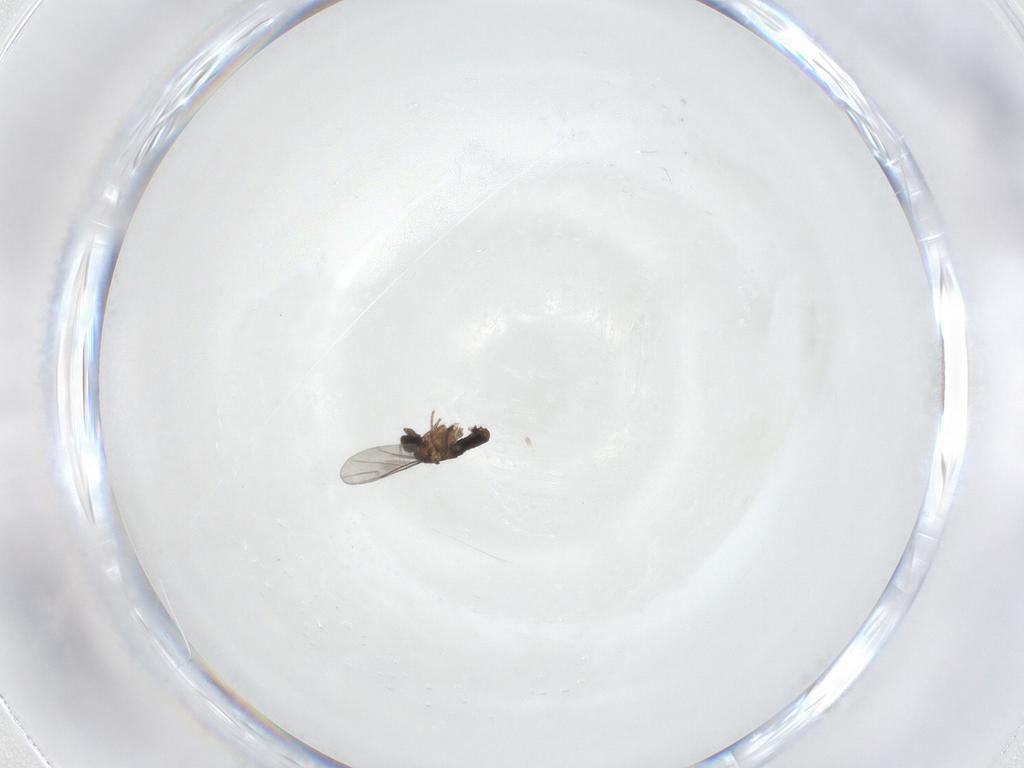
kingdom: Animalia
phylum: Arthropoda
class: Insecta
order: Diptera
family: Phoridae
